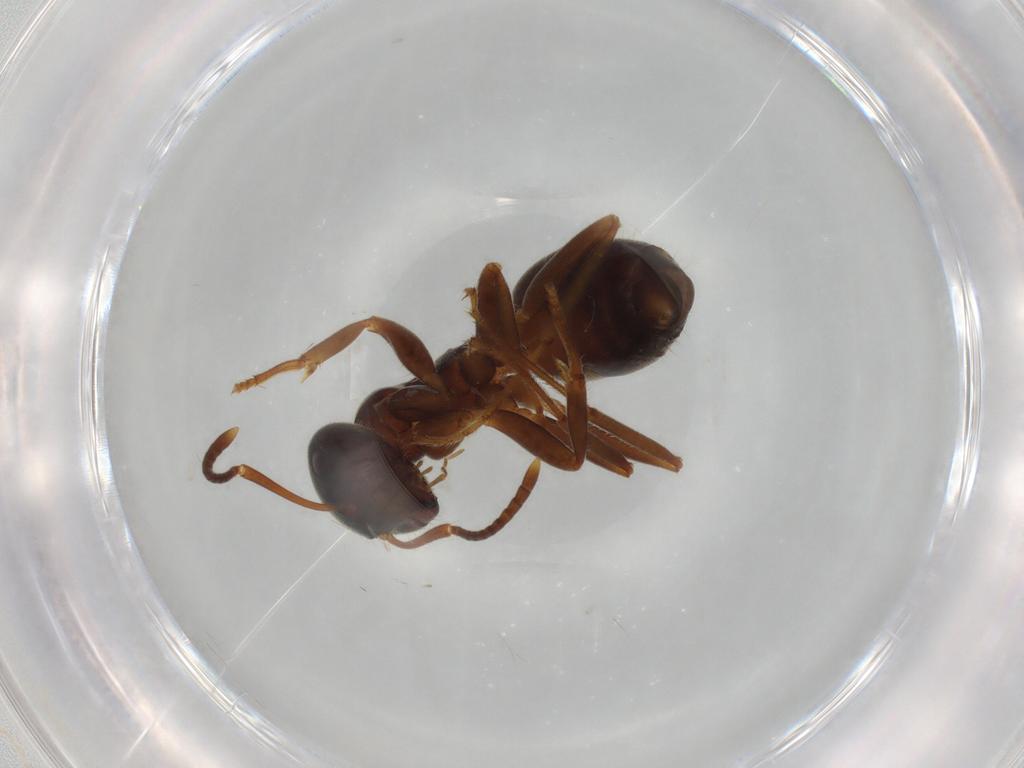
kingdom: Animalia
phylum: Arthropoda
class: Insecta
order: Hymenoptera
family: Formicidae
